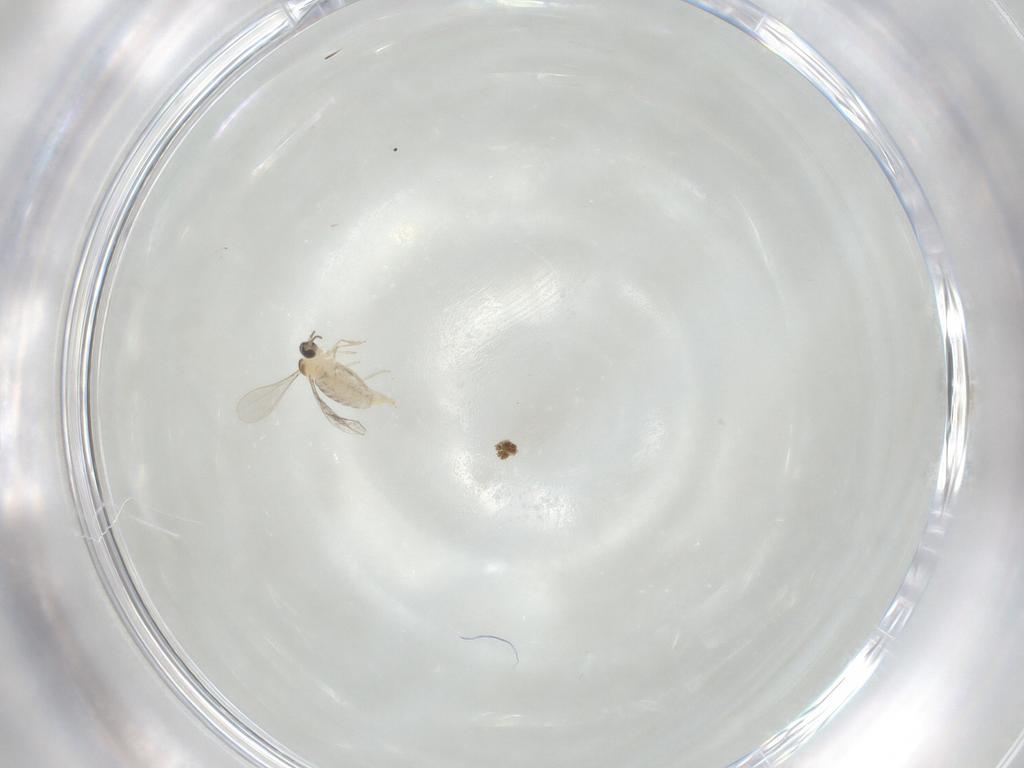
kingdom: Animalia
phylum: Arthropoda
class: Insecta
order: Diptera
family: Cecidomyiidae
